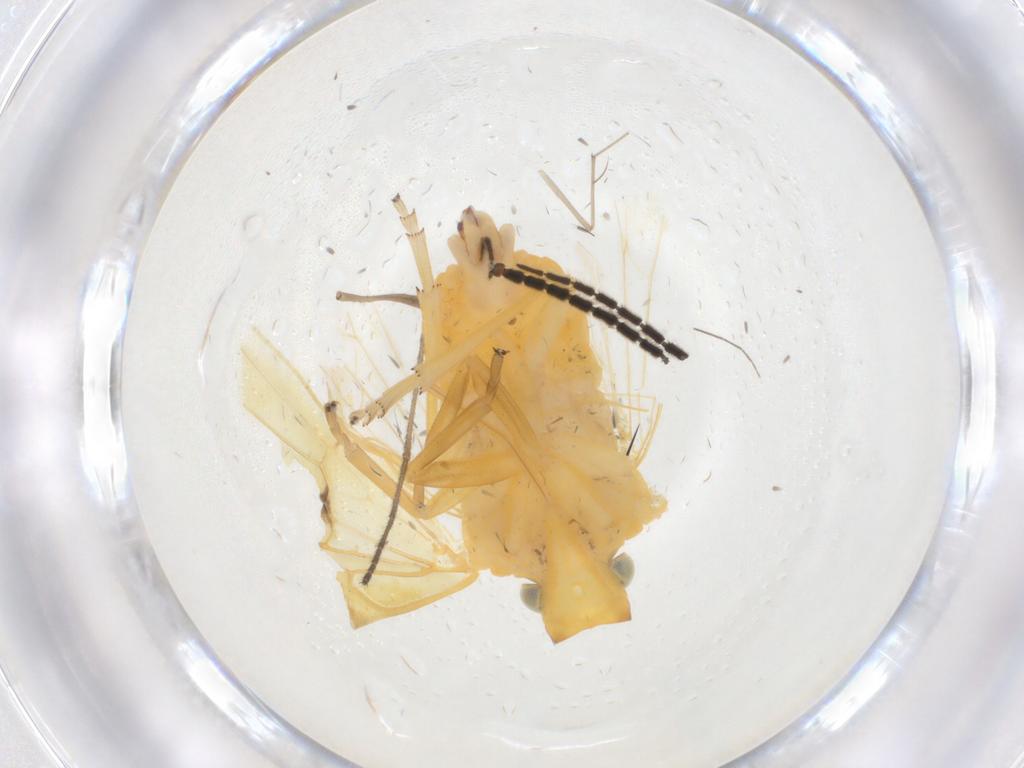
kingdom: Animalia
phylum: Arthropoda
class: Insecta
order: Hemiptera
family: Cixiidae
